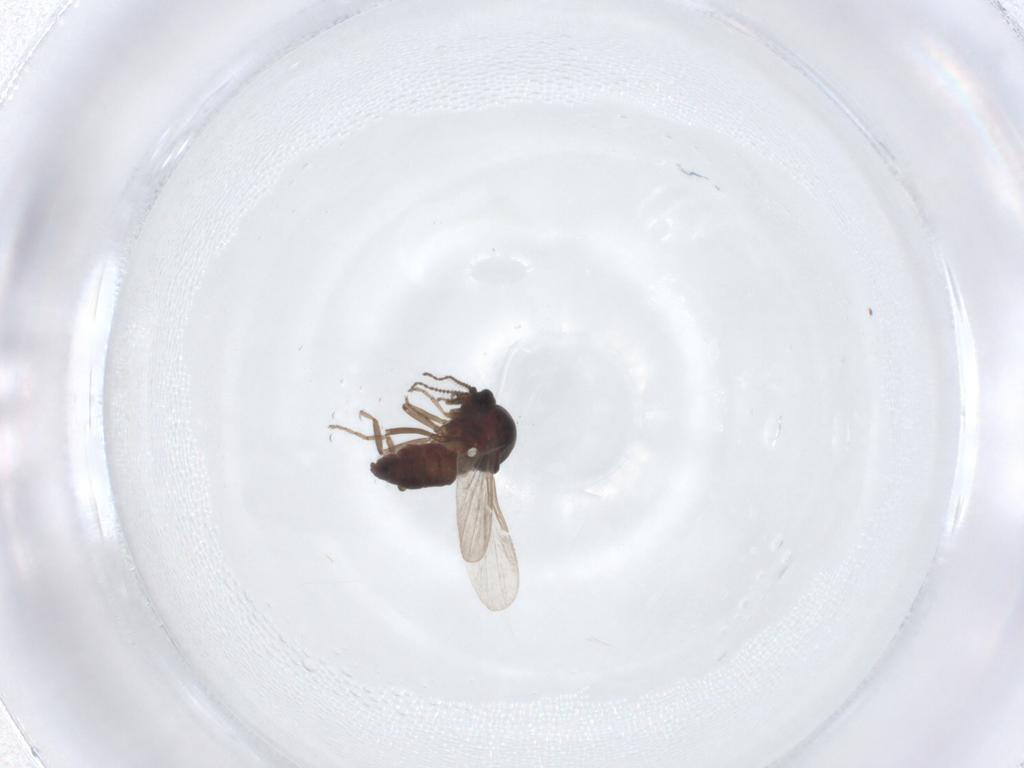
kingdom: Animalia
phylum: Arthropoda
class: Insecta
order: Diptera
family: Ceratopogonidae
